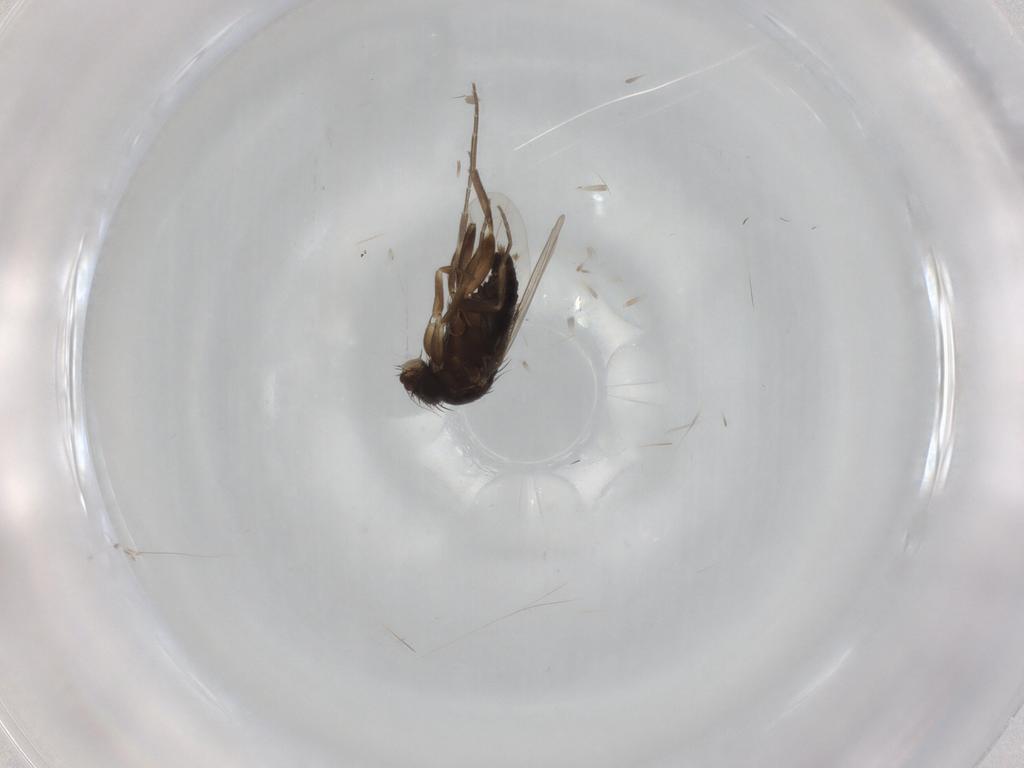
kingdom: Animalia
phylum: Arthropoda
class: Insecta
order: Diptera
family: Phoridae
